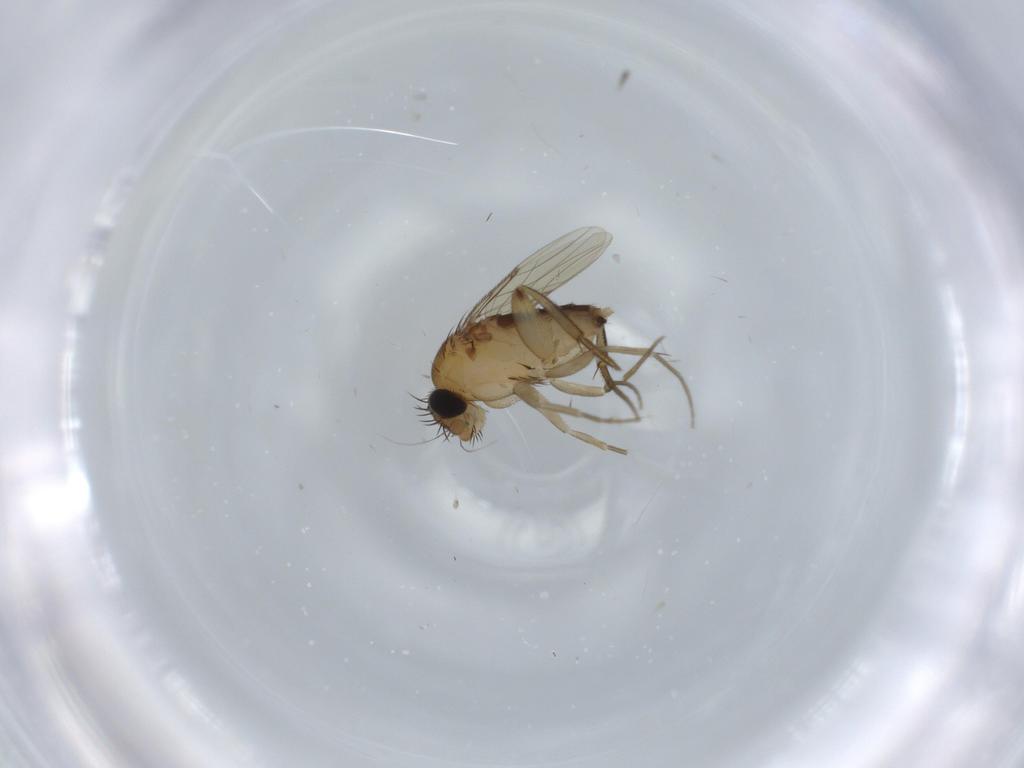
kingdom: Animalia
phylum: Arthropoda
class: Insecta
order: Diptera
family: Phoridae
